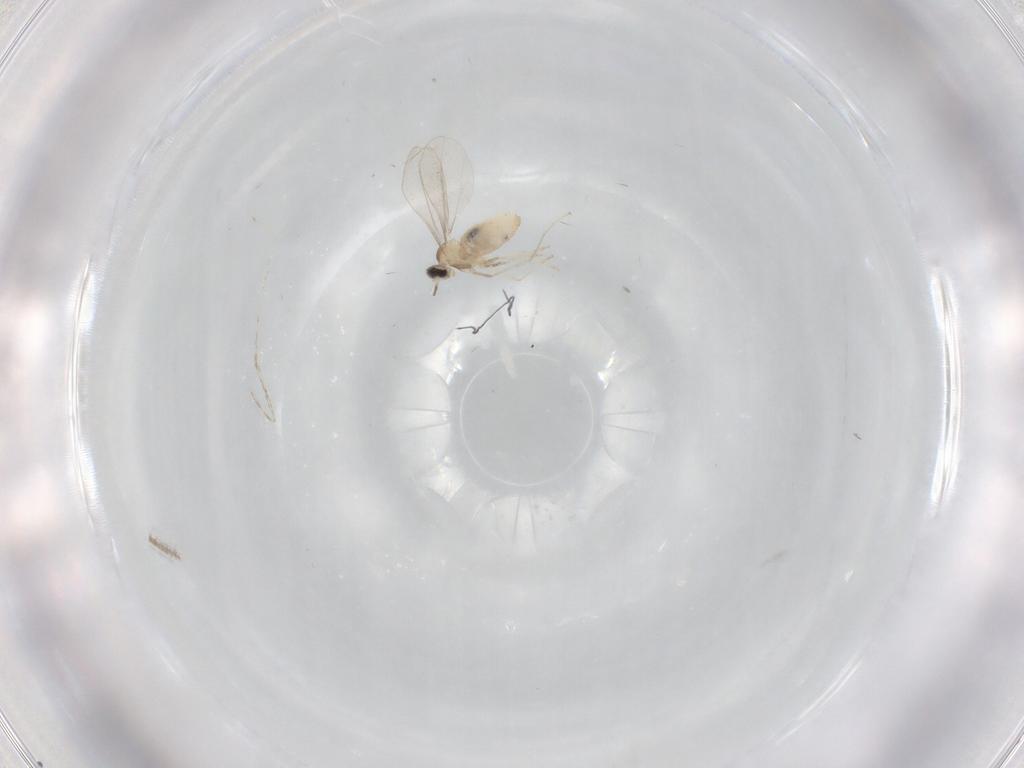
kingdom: Animalia
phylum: Arthropoda
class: Insecta
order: Diptera
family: Cecidomyiidae
